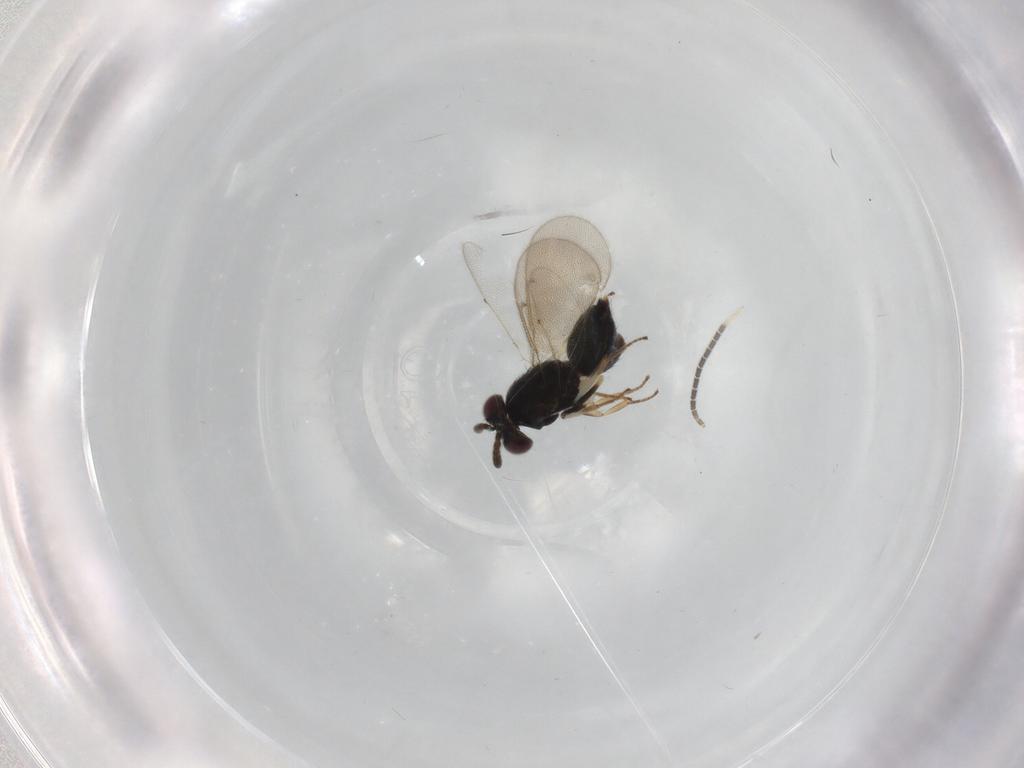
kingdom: Animalia
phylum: Arthropoda
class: Insecta
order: Hymenoptera
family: Aphelinidae
